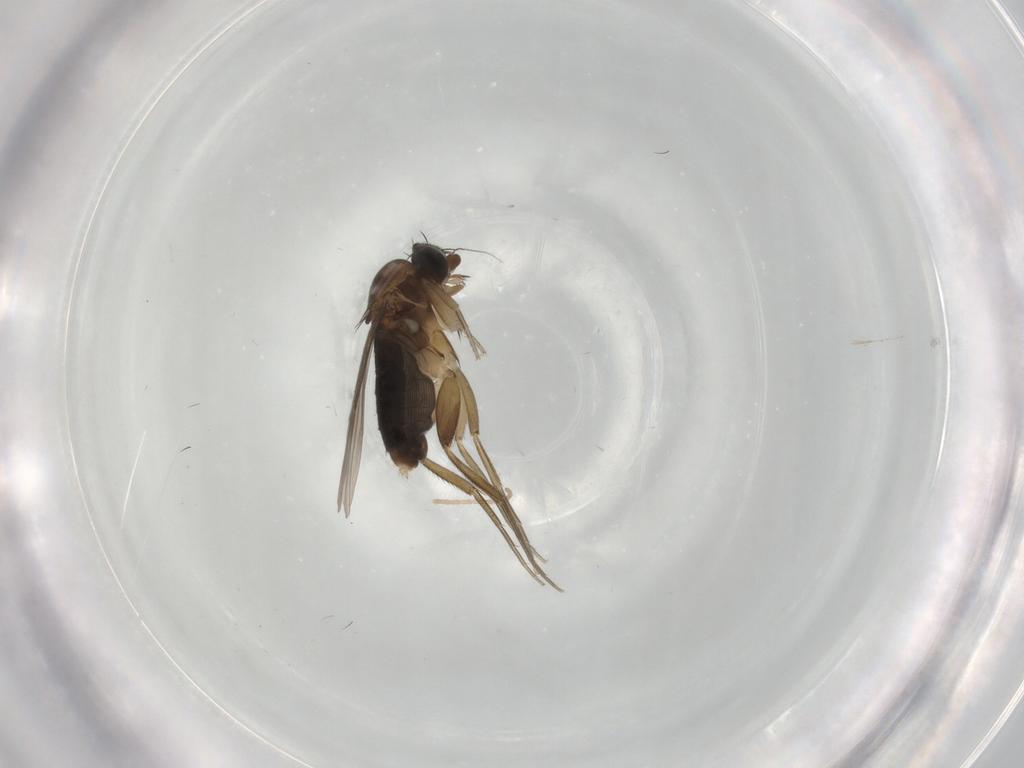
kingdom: Animalia
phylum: Arthropoda
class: Insecta
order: Diptera
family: Phoridae
